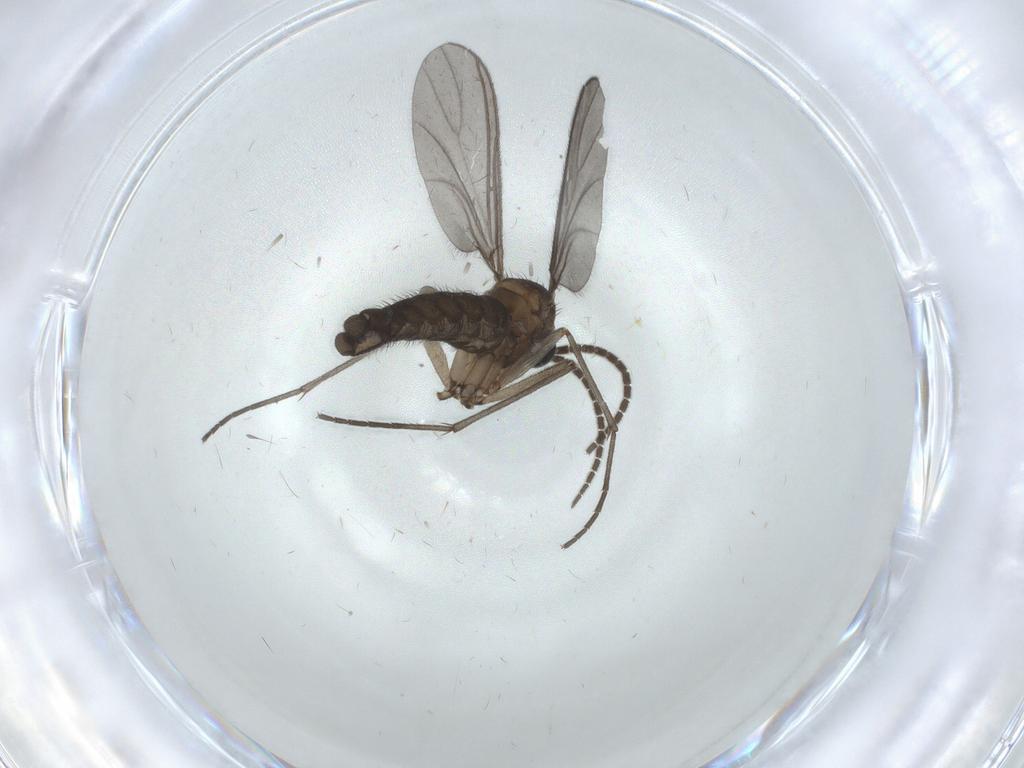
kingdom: Animalia
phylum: Arthropoda
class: Insecta
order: Diptera
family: Sciaridae
